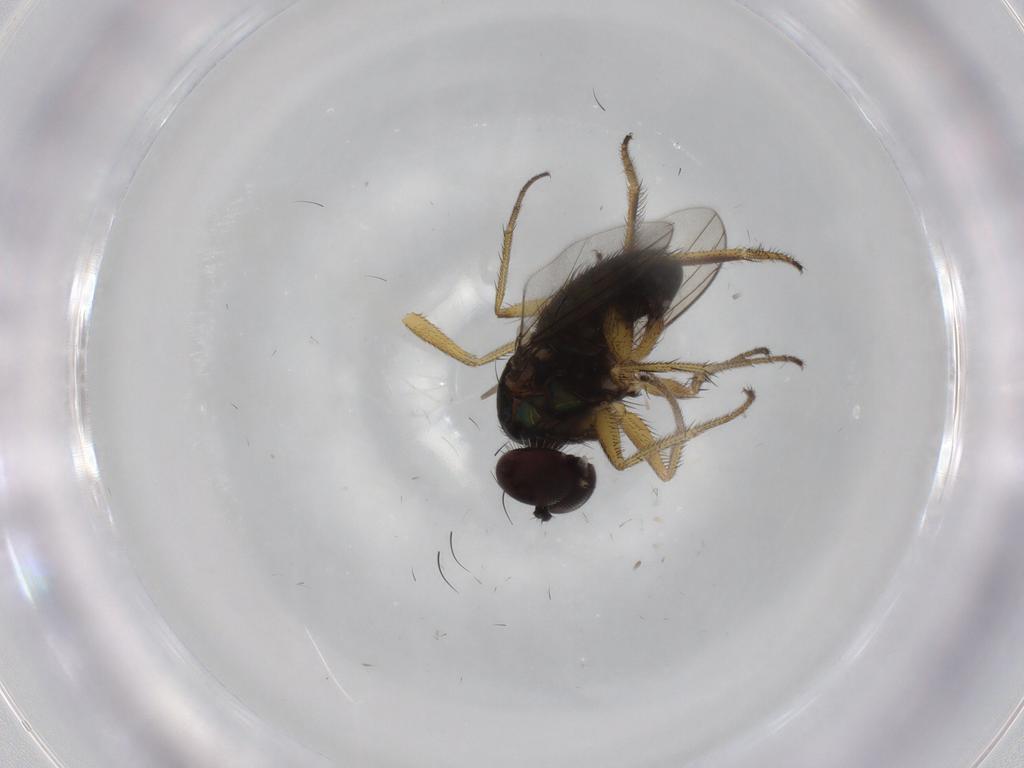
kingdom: Animalia
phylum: Arthropoda
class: Insecta
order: Diptera
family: Dolichopodidae
